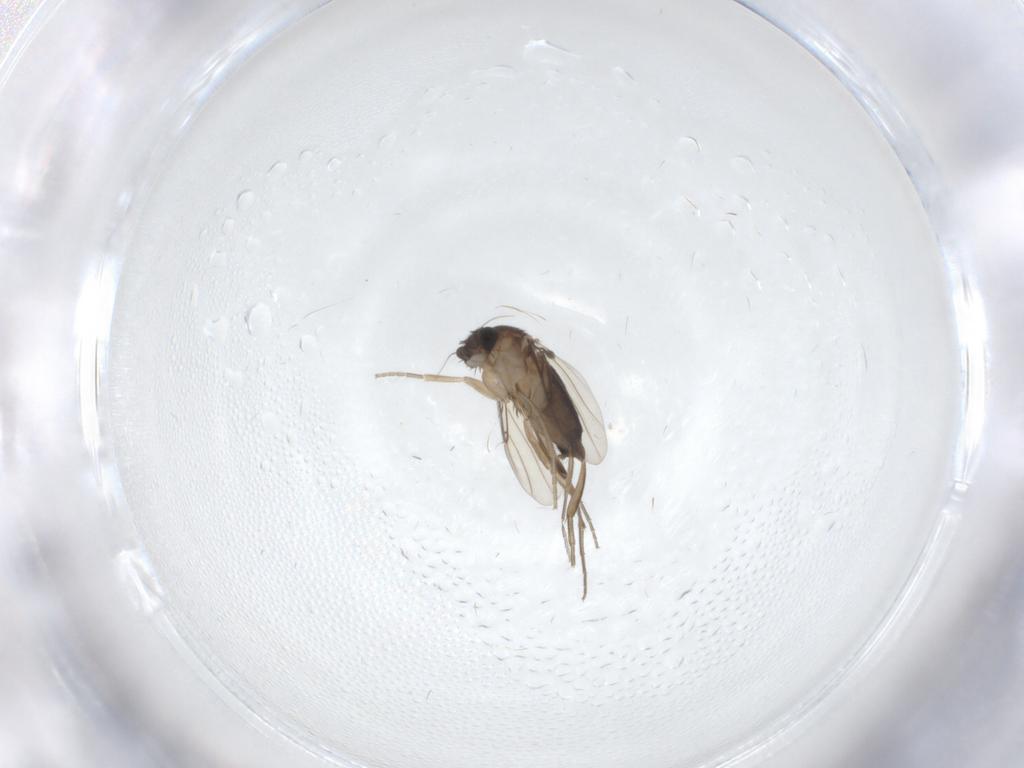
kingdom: Animalia
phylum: Arthropoda
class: Insecta
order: Diptera
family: Phoridae
